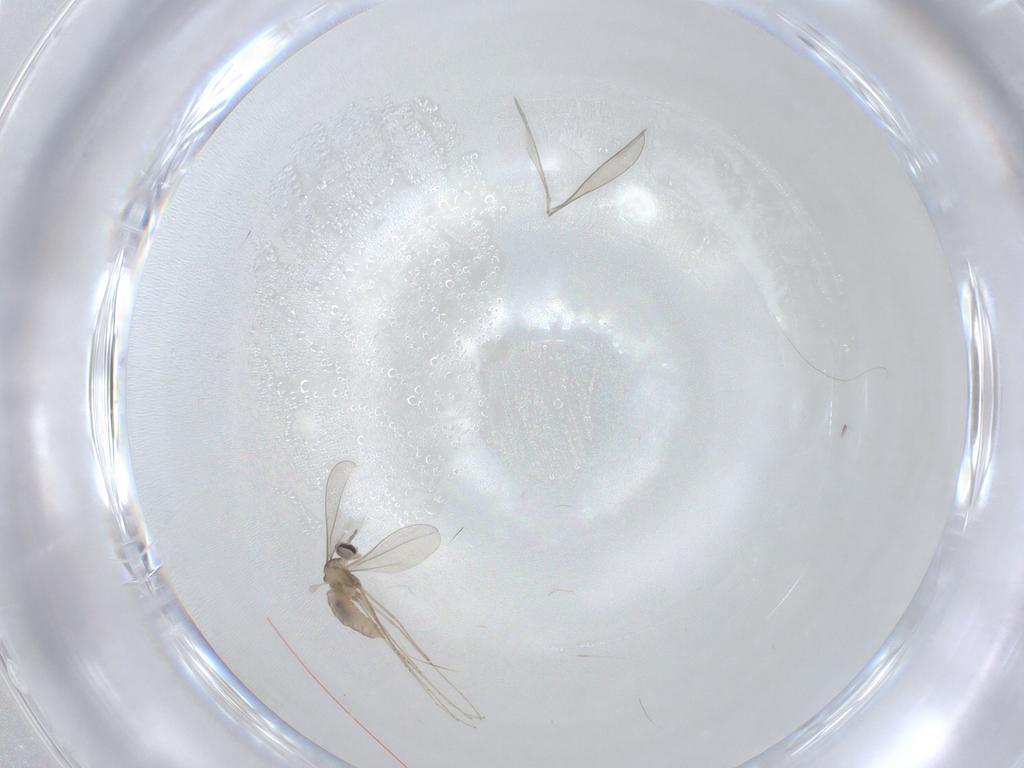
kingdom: Animalia
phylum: Arthropoda
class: Insecta
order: Diptera
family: Cecidomyiidae
